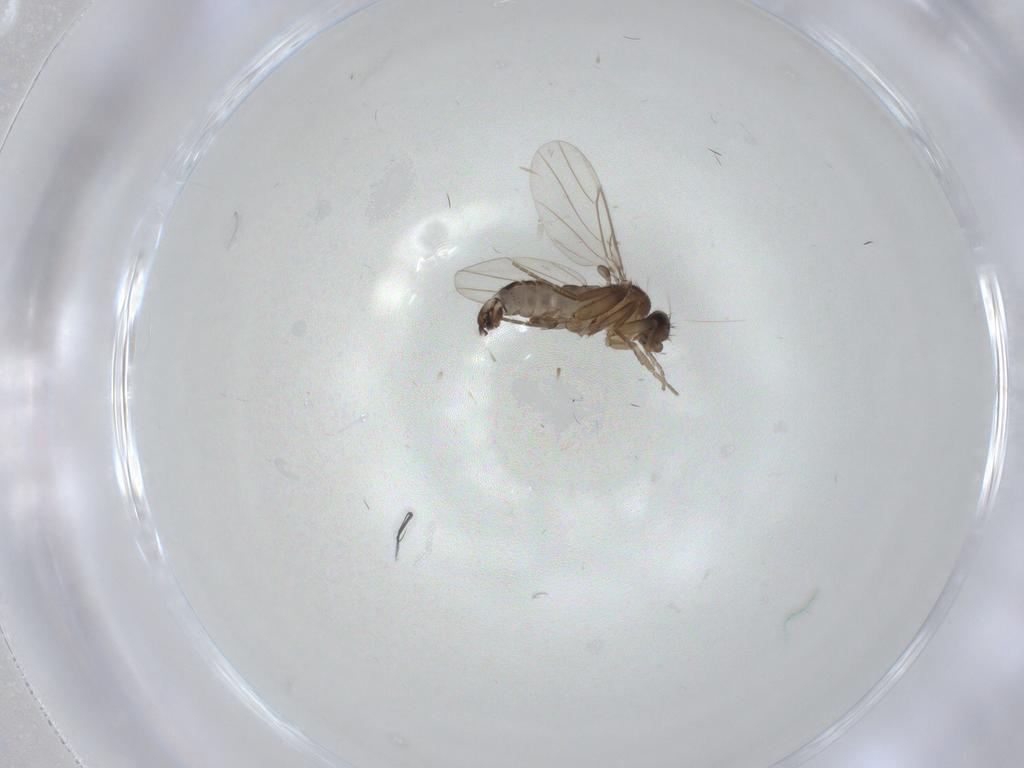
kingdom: Animalia
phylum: Arthropoda
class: Insecta
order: Diptera
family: Phoridae
